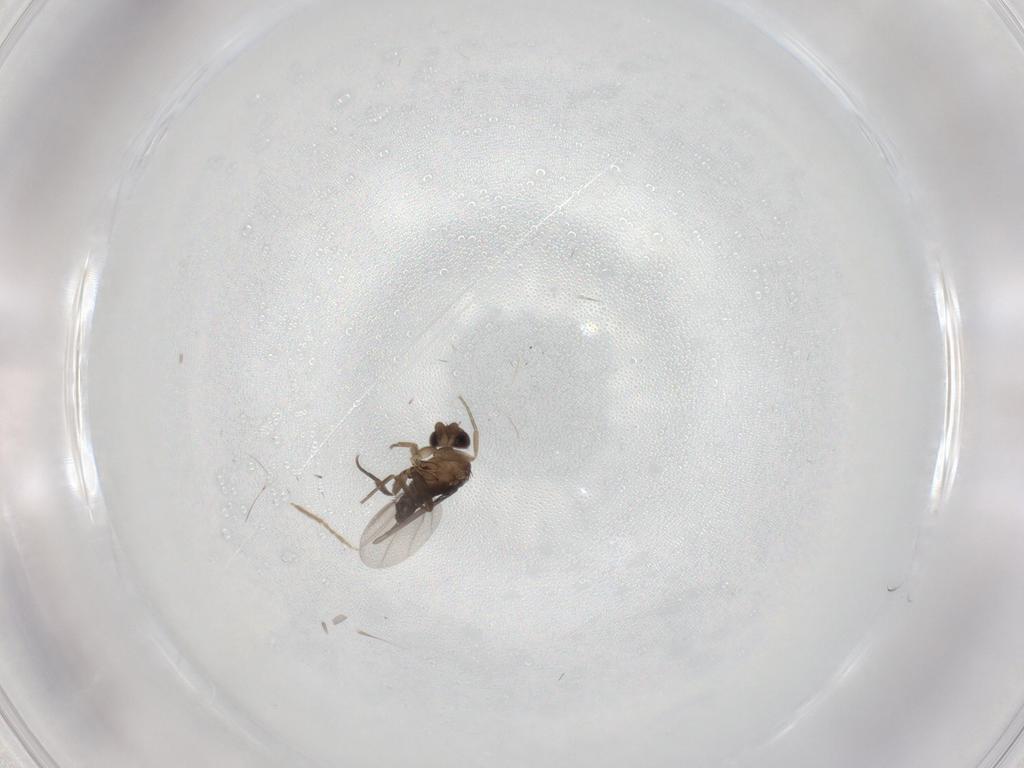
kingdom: Animalia
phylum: Arthropoda
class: Insecta
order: Diptera
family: Phoridae
